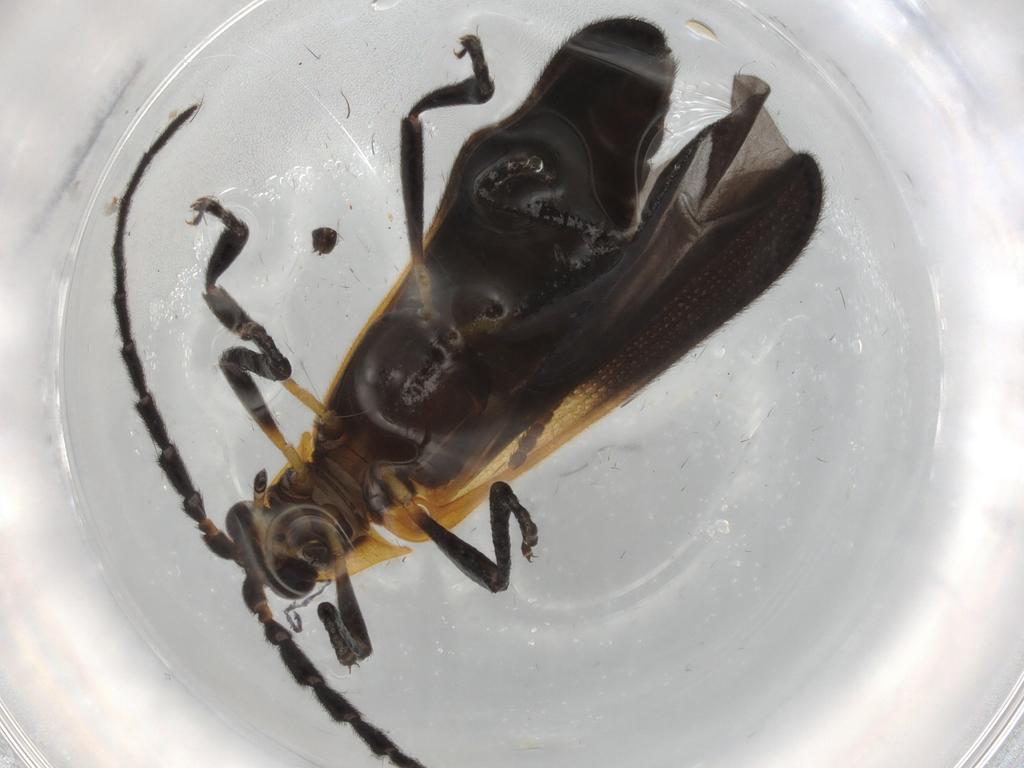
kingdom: Animalia
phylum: Arthropoda
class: Insecta
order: Coleoptera
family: Lycidae
